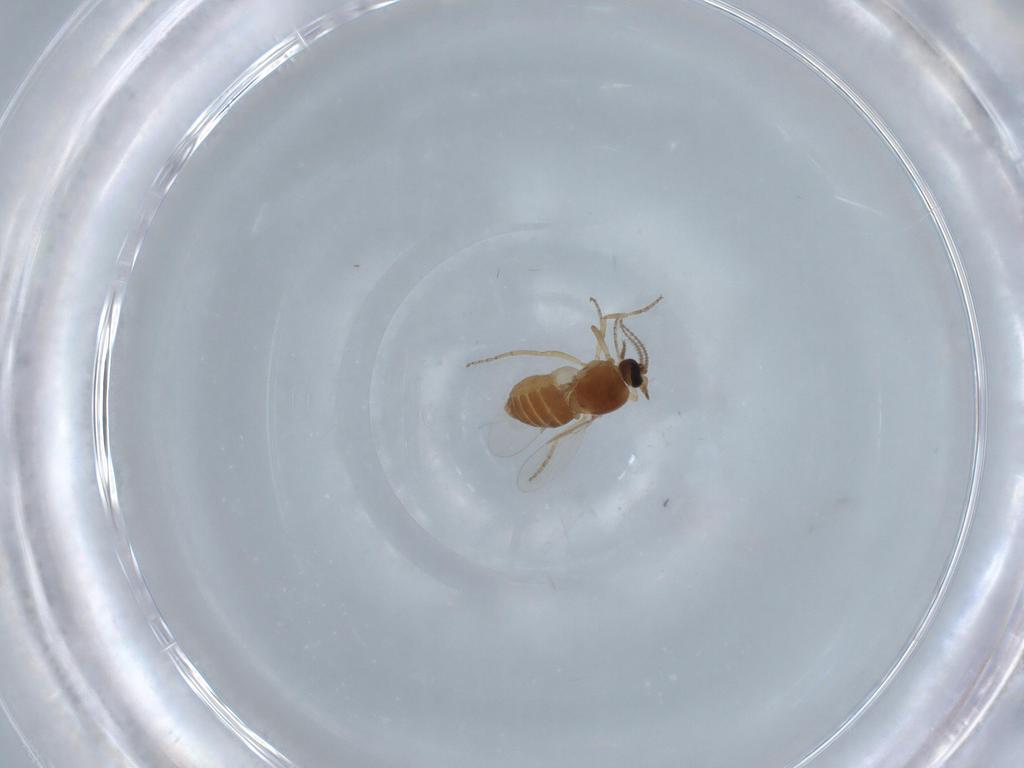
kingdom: Animalia
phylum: Arthropoda
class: Insecta
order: Diptera
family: Ceratopogonidae
